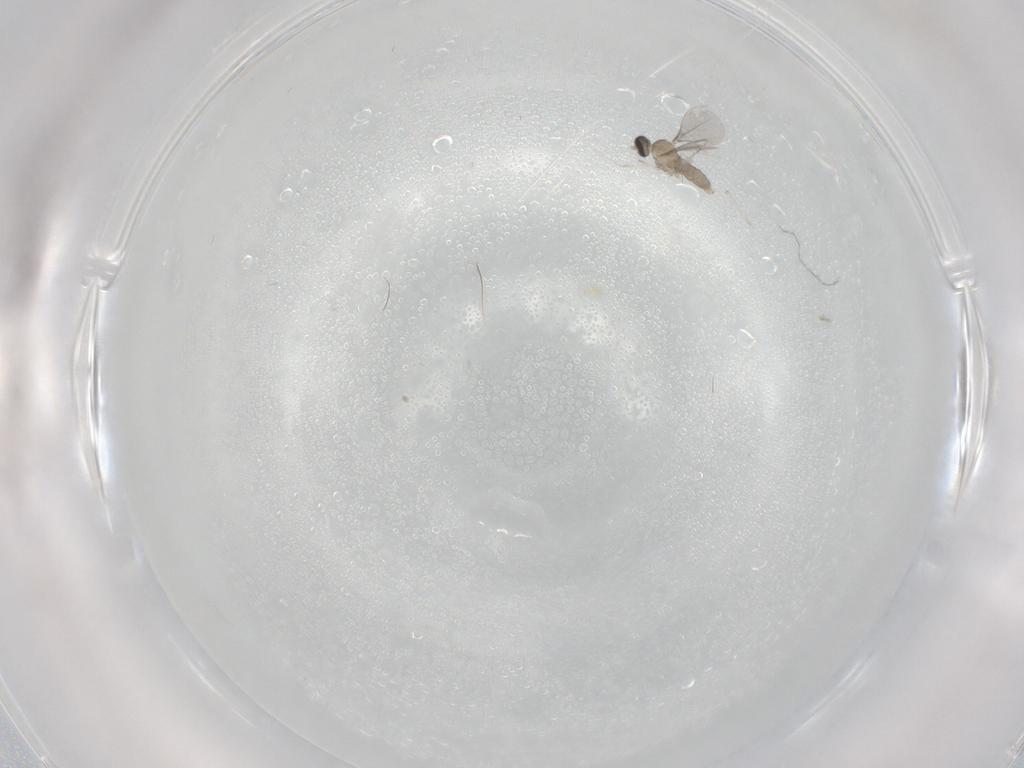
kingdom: Animalia
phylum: Arthropoda
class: Insecta
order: Diptera
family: Cecidomyiidae
